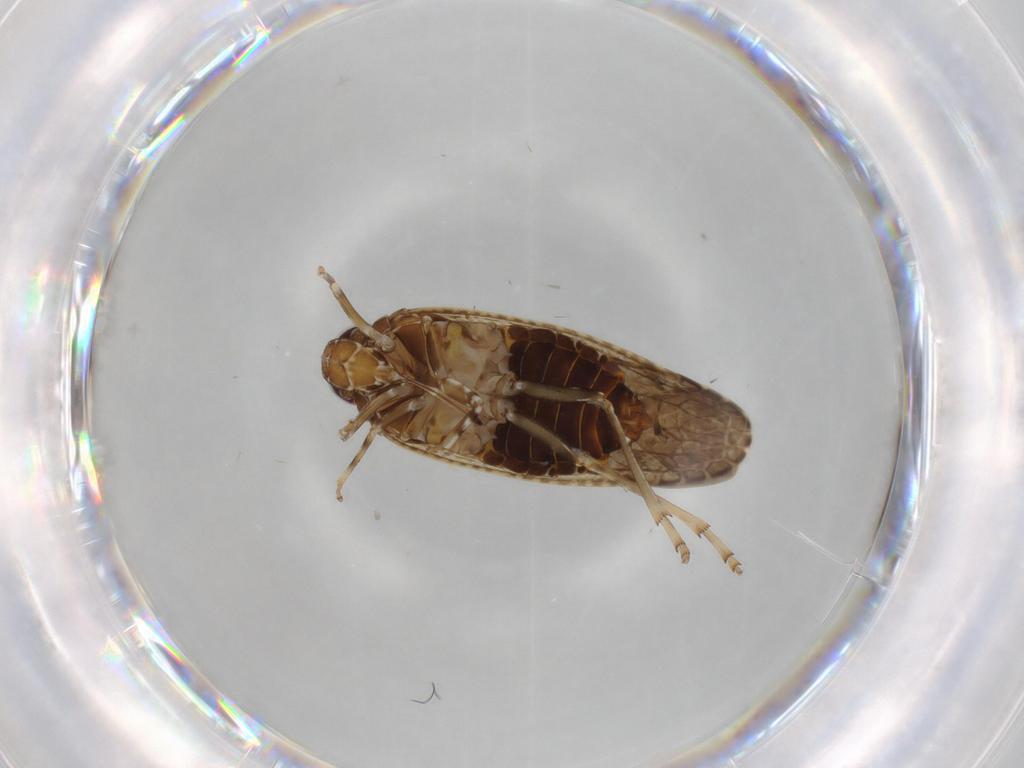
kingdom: Animalia
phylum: Arthropoda
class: Insecta
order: Hemiptera
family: Achilidae
